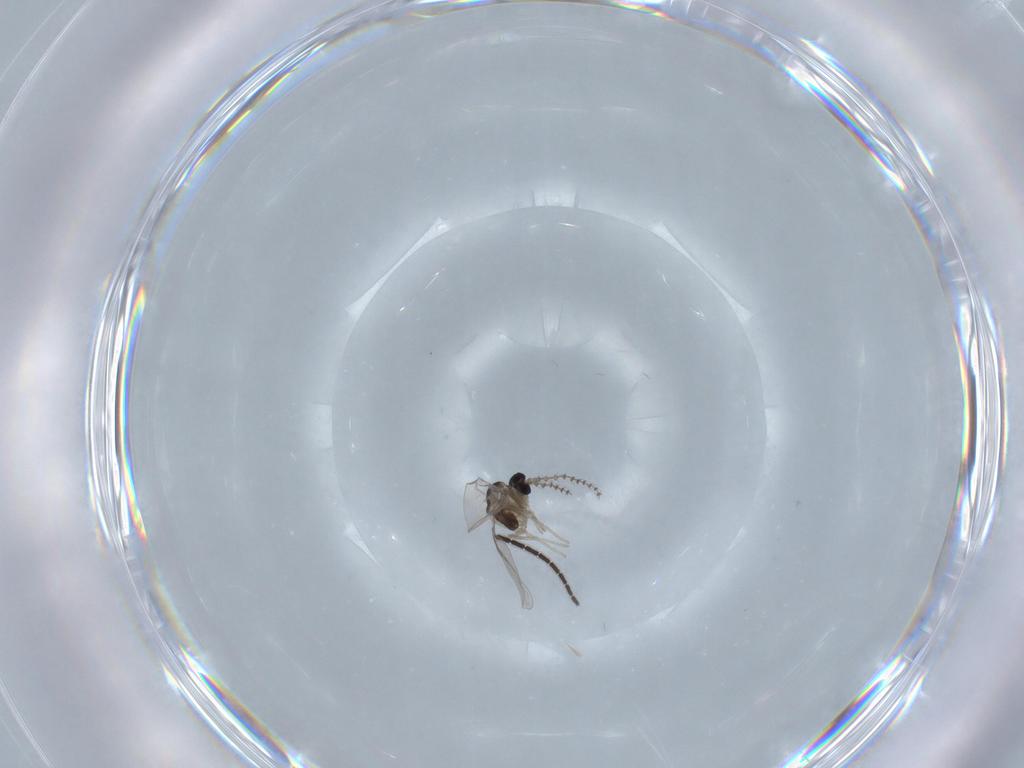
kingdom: Animalia
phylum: Arthropoda
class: Insecta
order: Diptera
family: Cecidomyiidae
